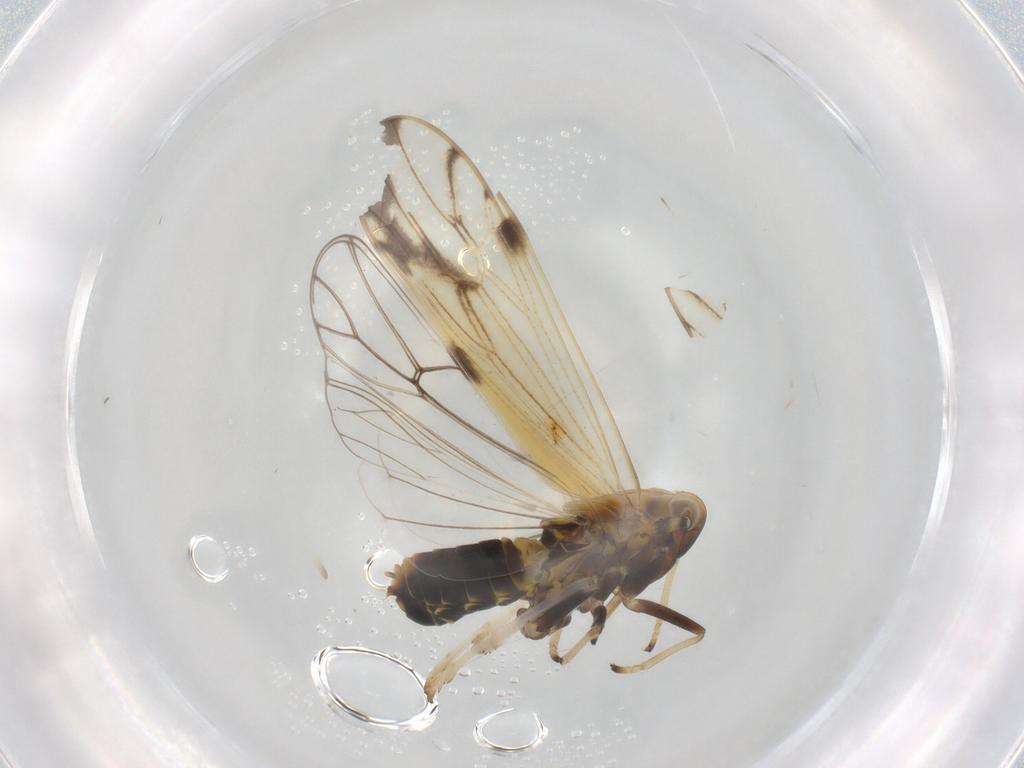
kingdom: Animalia
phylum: Arthropoda
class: Insecta
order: Hemiptera
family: Delphacidae
